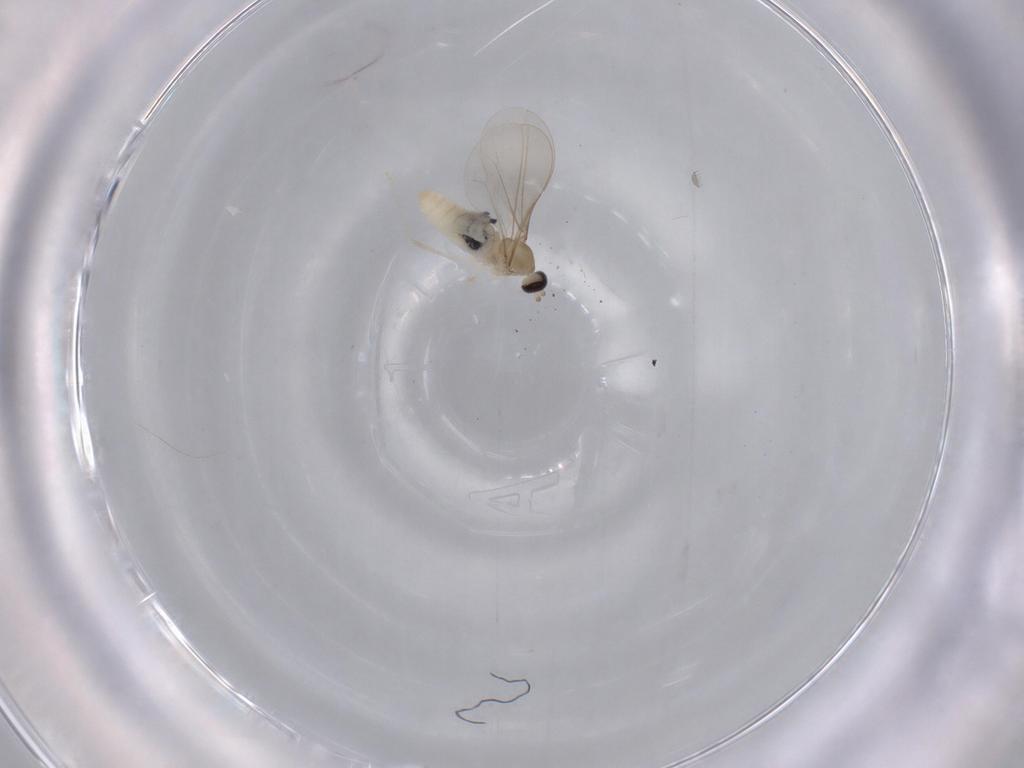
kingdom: Animalia
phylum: Arthropoda
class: Insecta
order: Diptera
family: Cecidomyiidae
